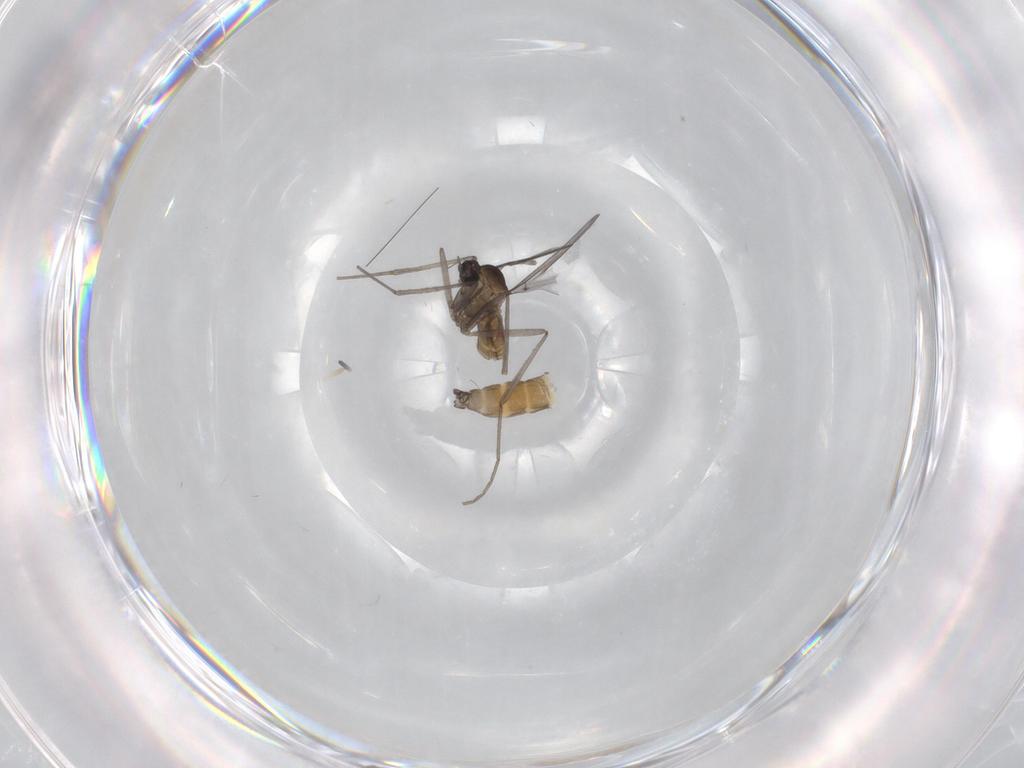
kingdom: Animalia
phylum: Arthropoda
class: Insecta
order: Diptera
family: Cecidomyiidae
